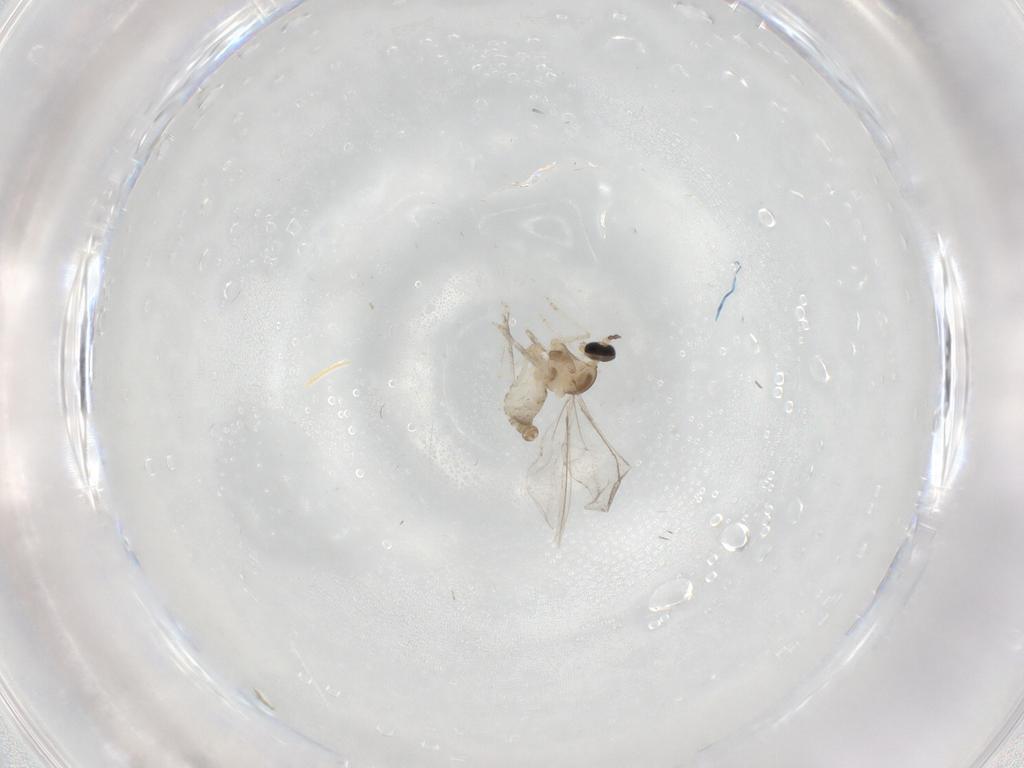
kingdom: Animalia
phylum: Arthropoda
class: Insecta
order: Diptera
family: Cecidomyiidae
